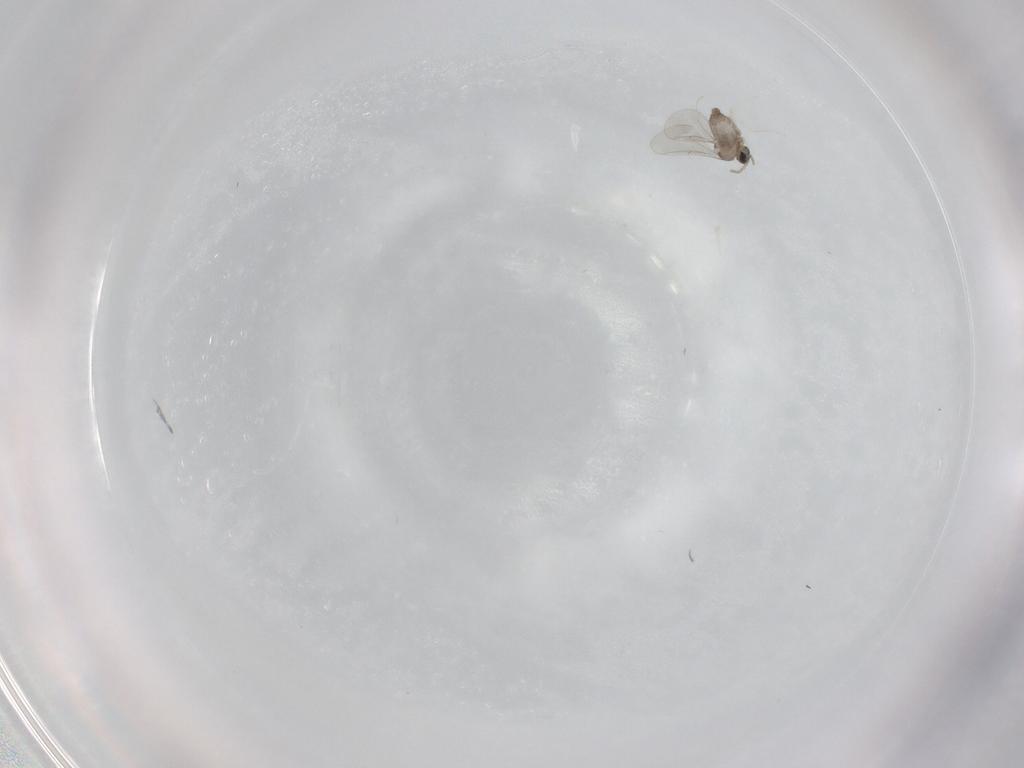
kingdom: Animalia
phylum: Arthropoda
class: Insecta
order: Diptera
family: Cecidomyiidae
